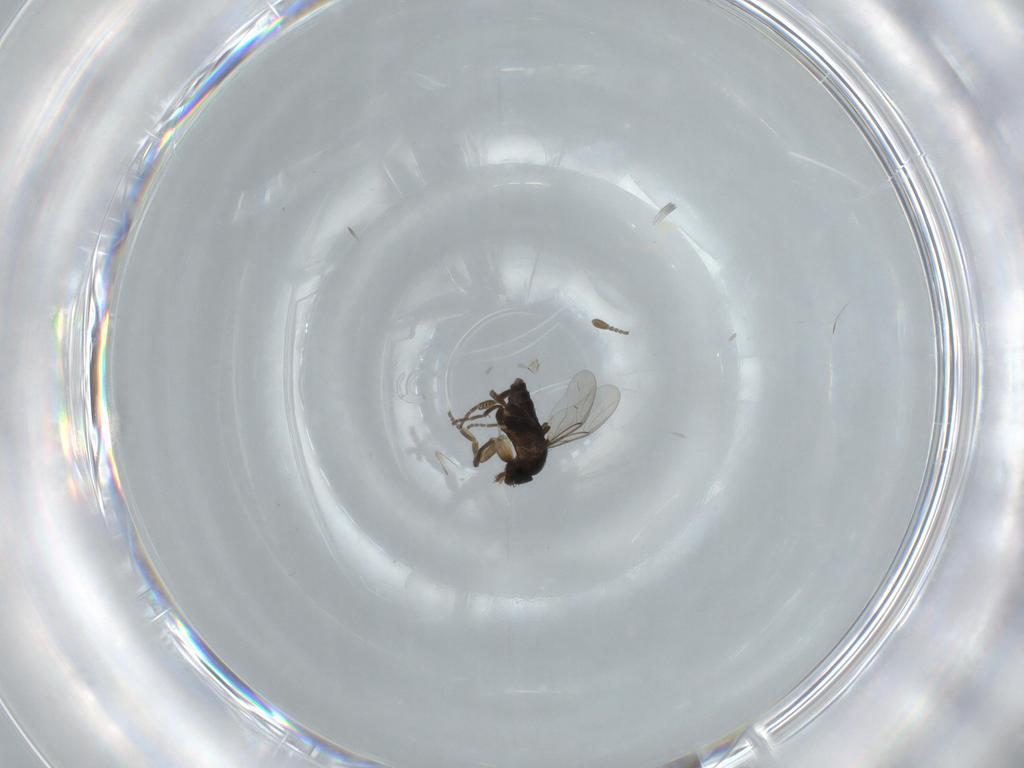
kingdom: Animalia
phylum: Arthropoda
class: Insecta
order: Diptera
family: Phoridae
